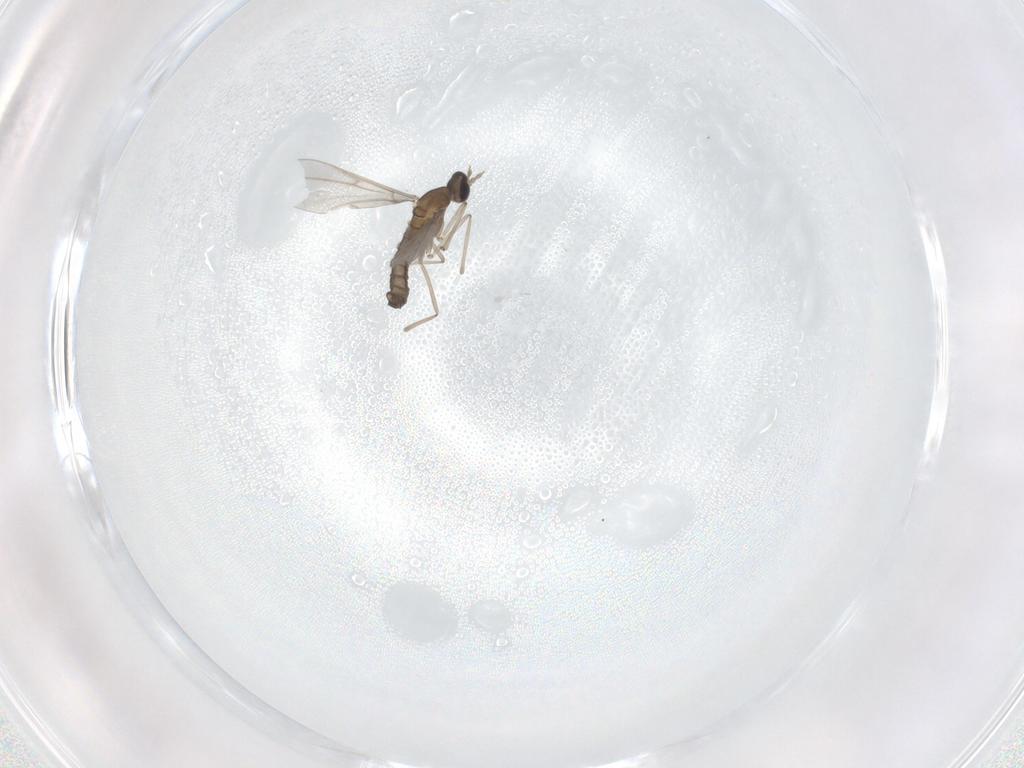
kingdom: Animalia
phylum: Arthropoda
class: Insecta
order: Diptera
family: Cecidomyiidae
